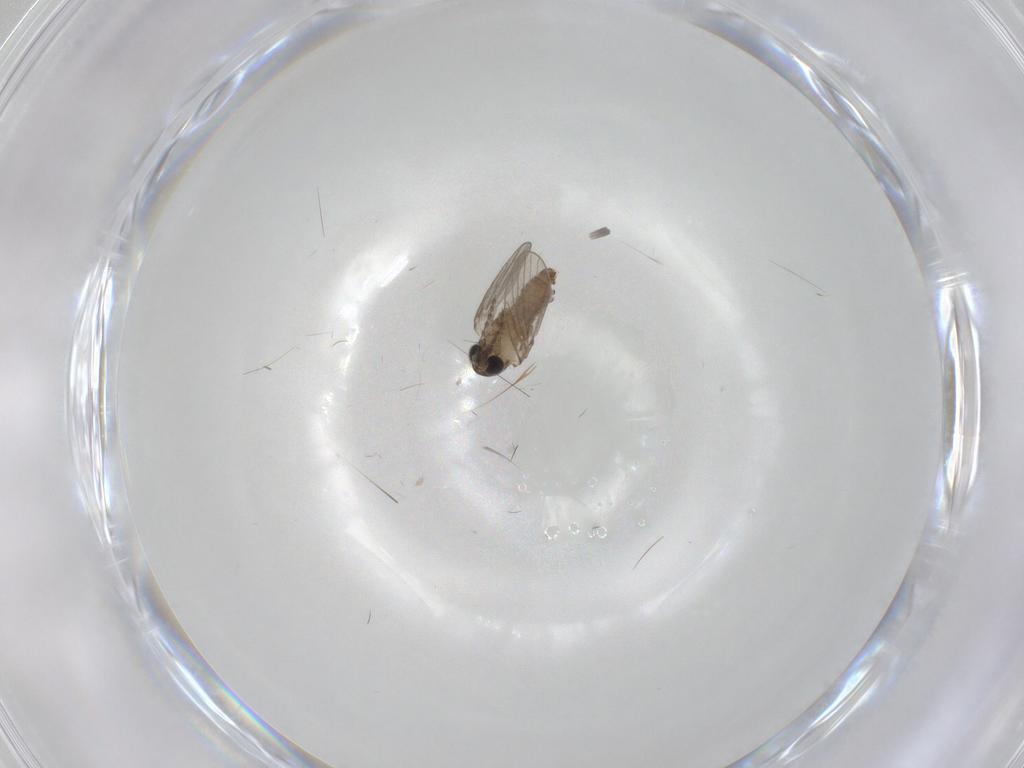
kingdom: Animalia
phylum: Arthropoda
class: Insecta
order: Diptera
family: Psychodidae
